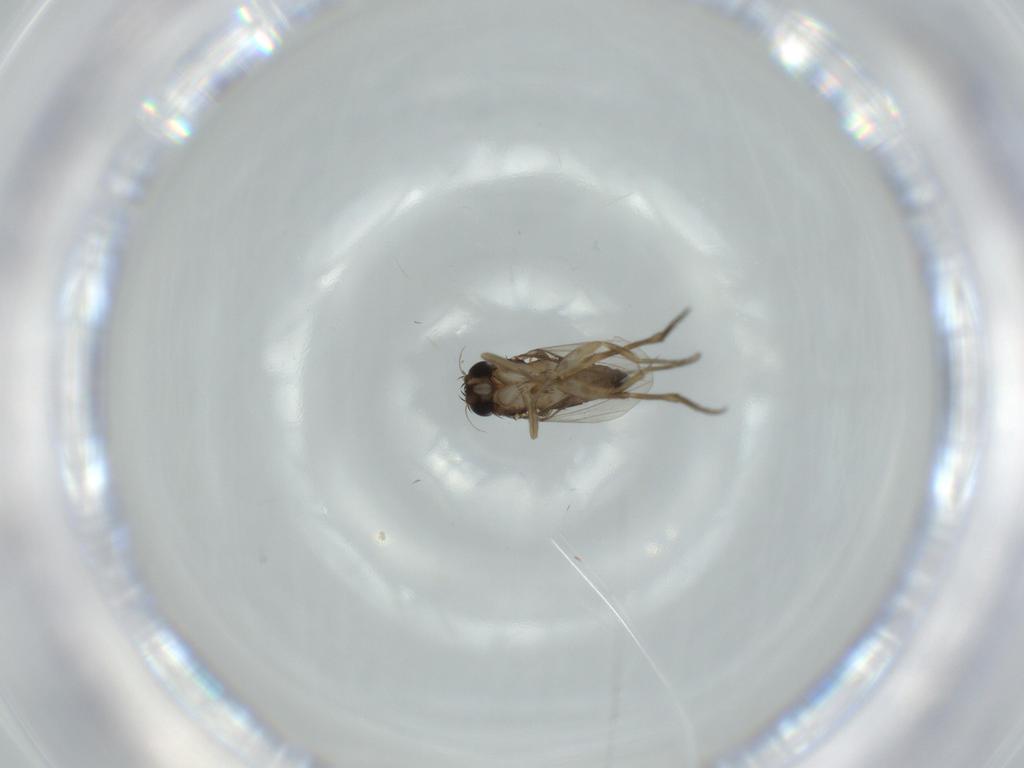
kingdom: Animalia
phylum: Arthropoda
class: Insecta
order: Diptera
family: Phoridae
